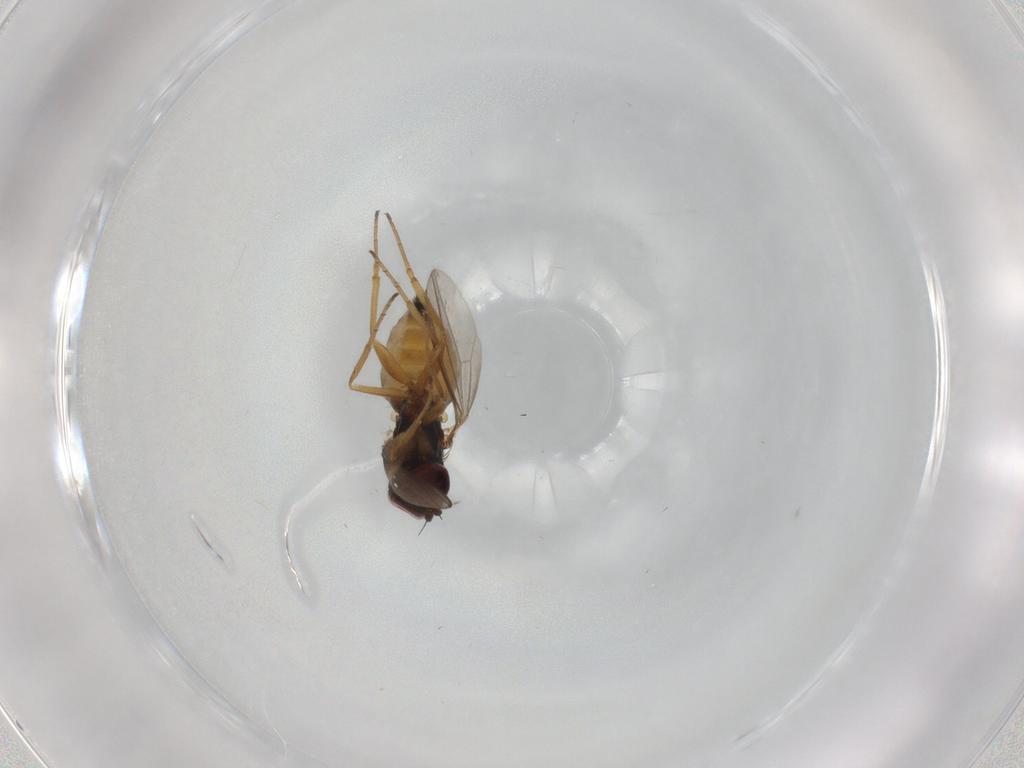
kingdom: Animalia
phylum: Arthropoda
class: Insecta
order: Diptera
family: Dolichopodidae
